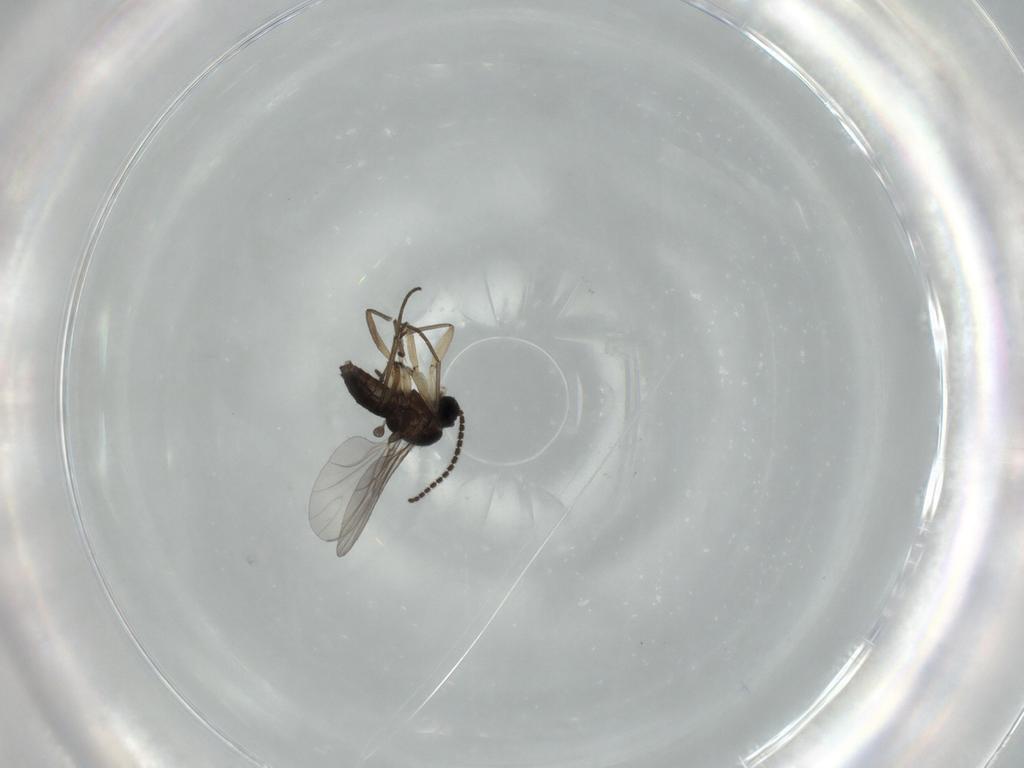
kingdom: Animalia
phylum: Arthropoda
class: Insecta
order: Diptera
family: Sciaridae
